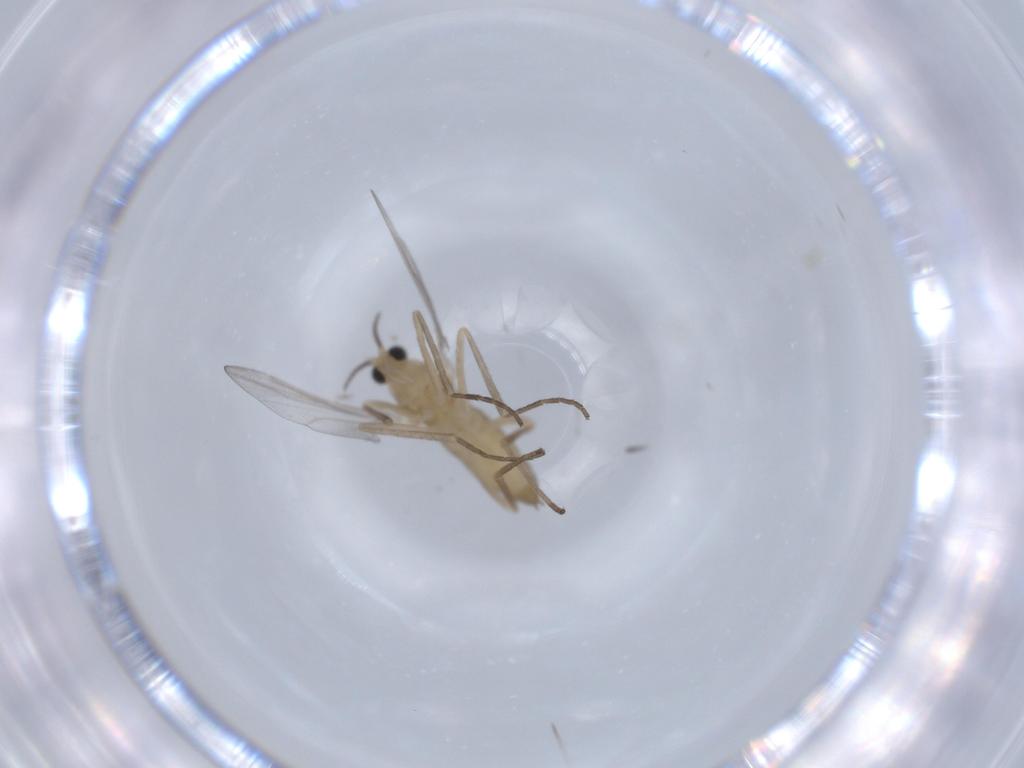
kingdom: Animalia
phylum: Arthropoda
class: Insecta
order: Diptera
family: Cecidomyiidae
